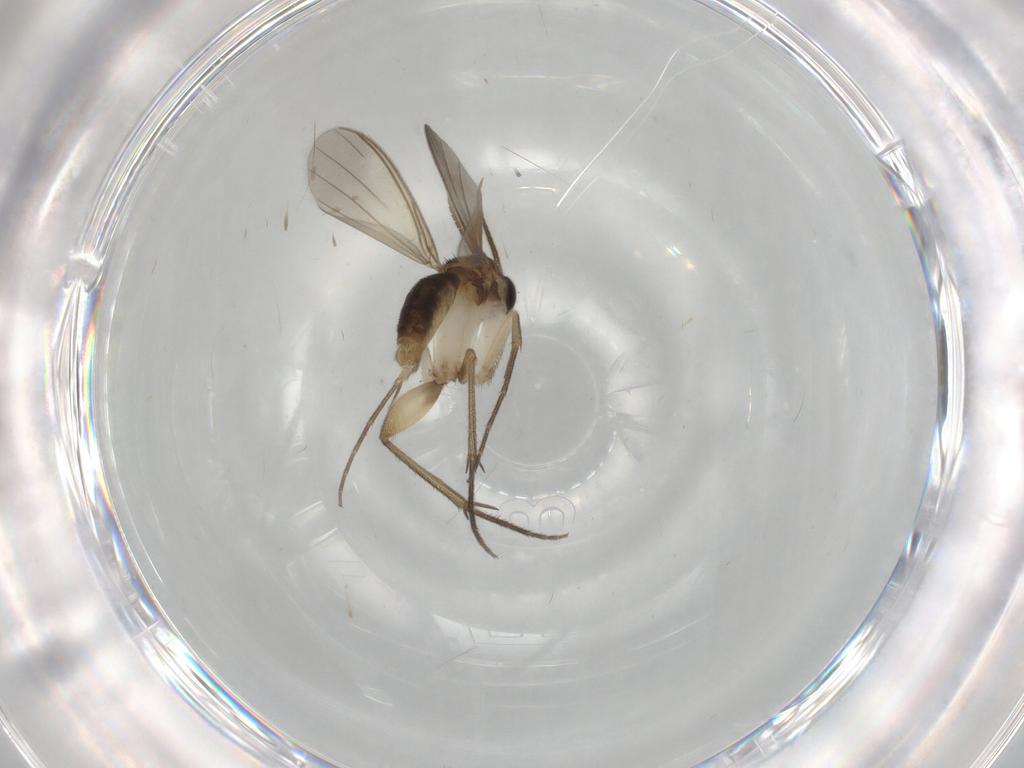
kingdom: Animalia
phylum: Arthropoda
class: Insecta
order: Diptera
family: Mycetophilidae
